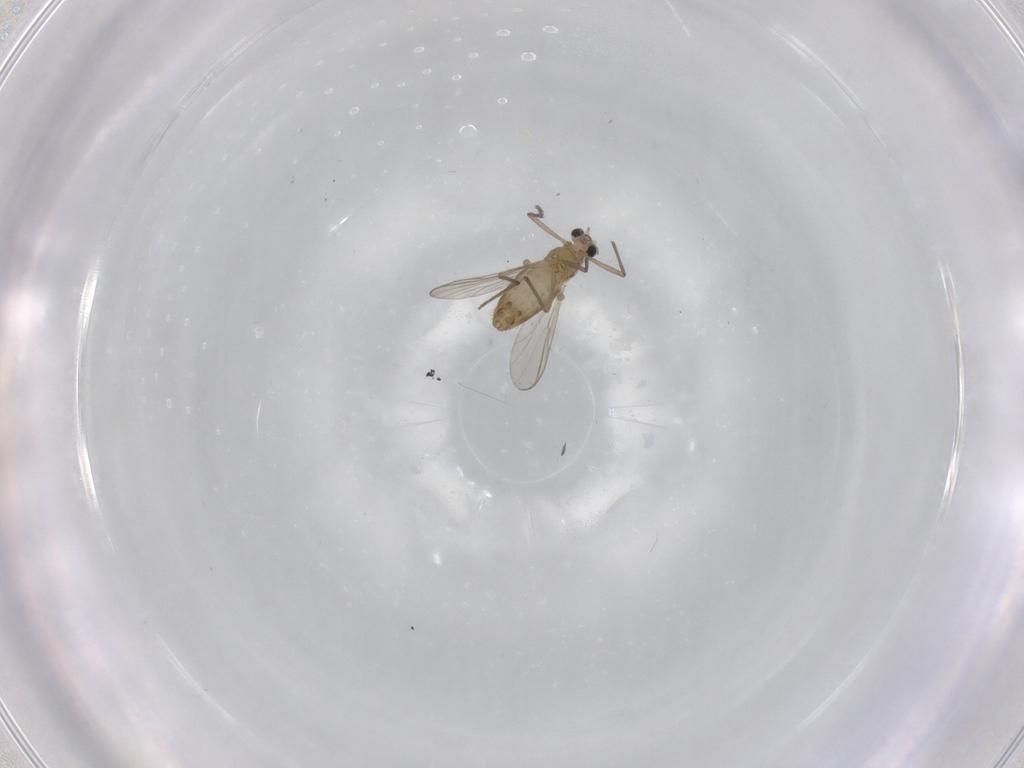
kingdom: Animalia
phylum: Arthropoda
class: Insecta
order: Diptera
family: Chironomidae
